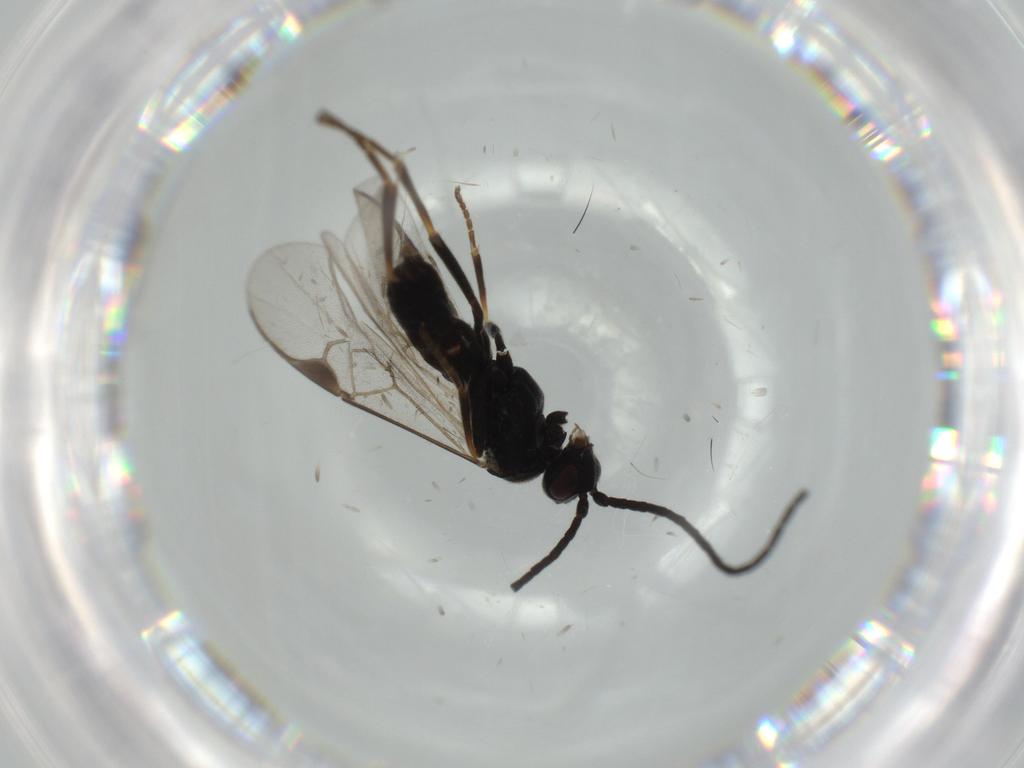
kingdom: Animalia
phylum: Arthropoda
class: Insecta
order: Hymenoptera
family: Braconidae
